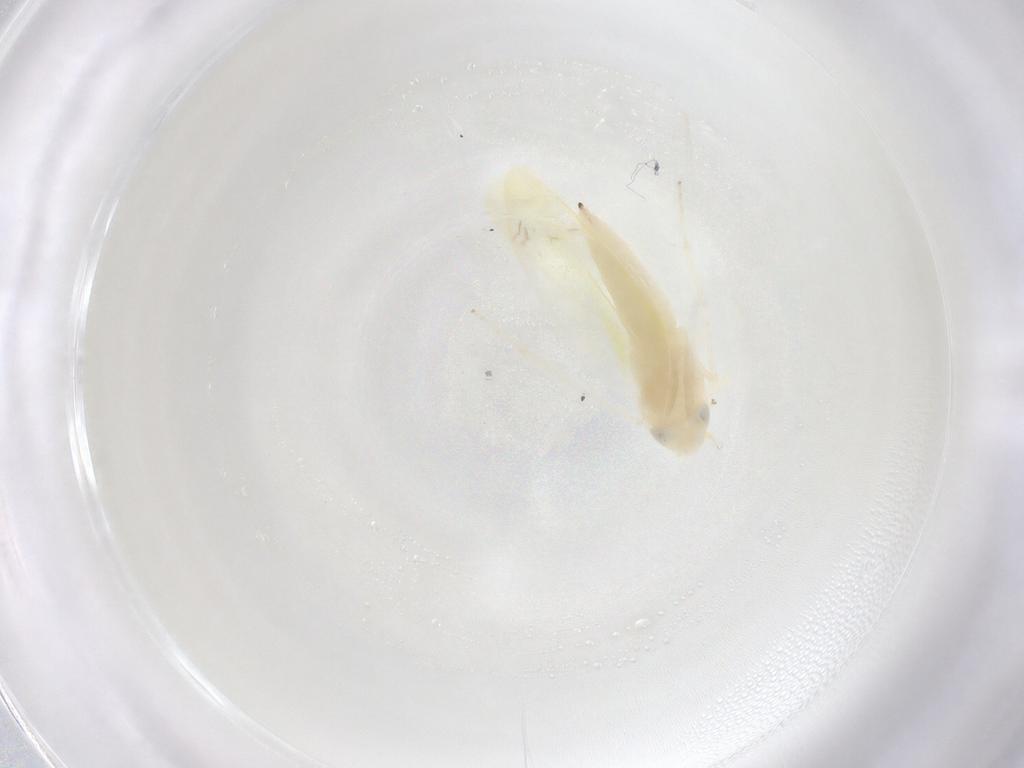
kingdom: Animalia
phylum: Arthropoda
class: Insecta
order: Hemiptera
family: Cicadellidae
